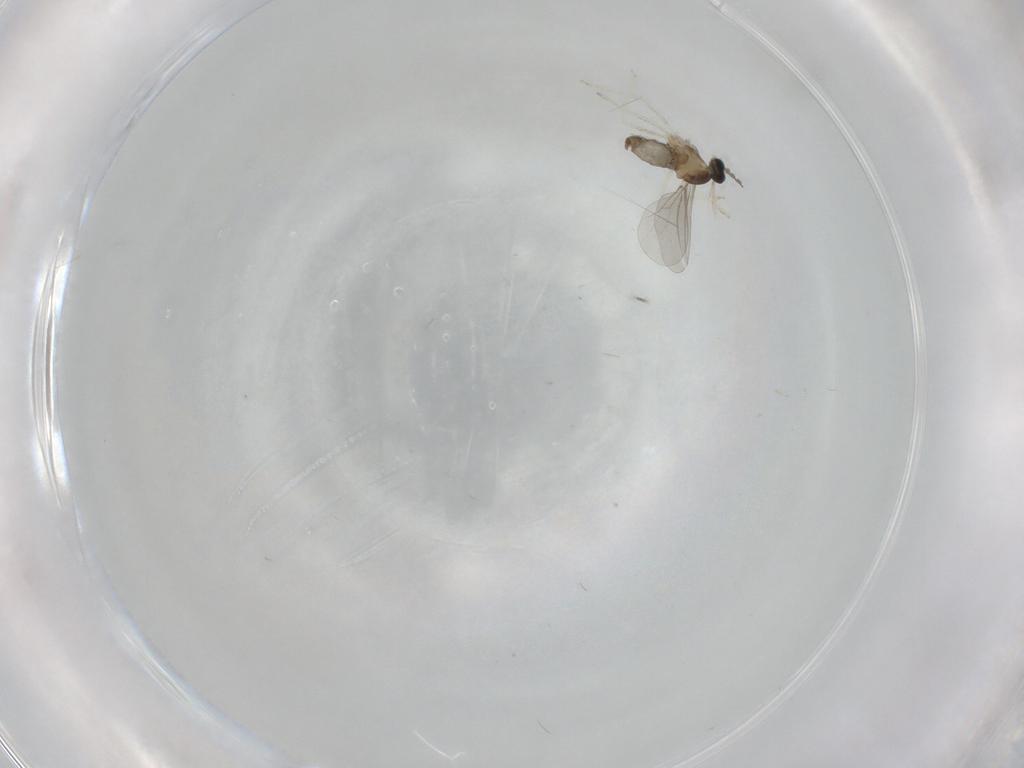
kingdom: Animalia
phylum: Arthropoda
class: Insecta
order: Diptera
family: Cecidomyiidae
